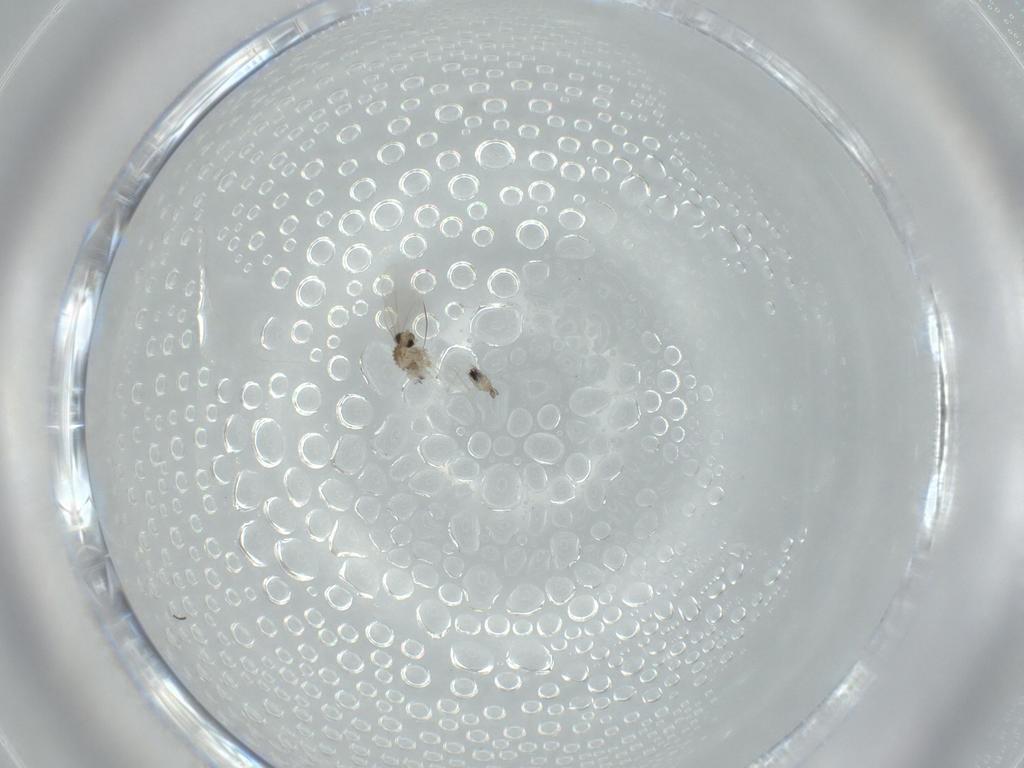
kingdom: Animalia
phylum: Arthropoda
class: Insecta
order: Diptera
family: Cecidomyiidae
